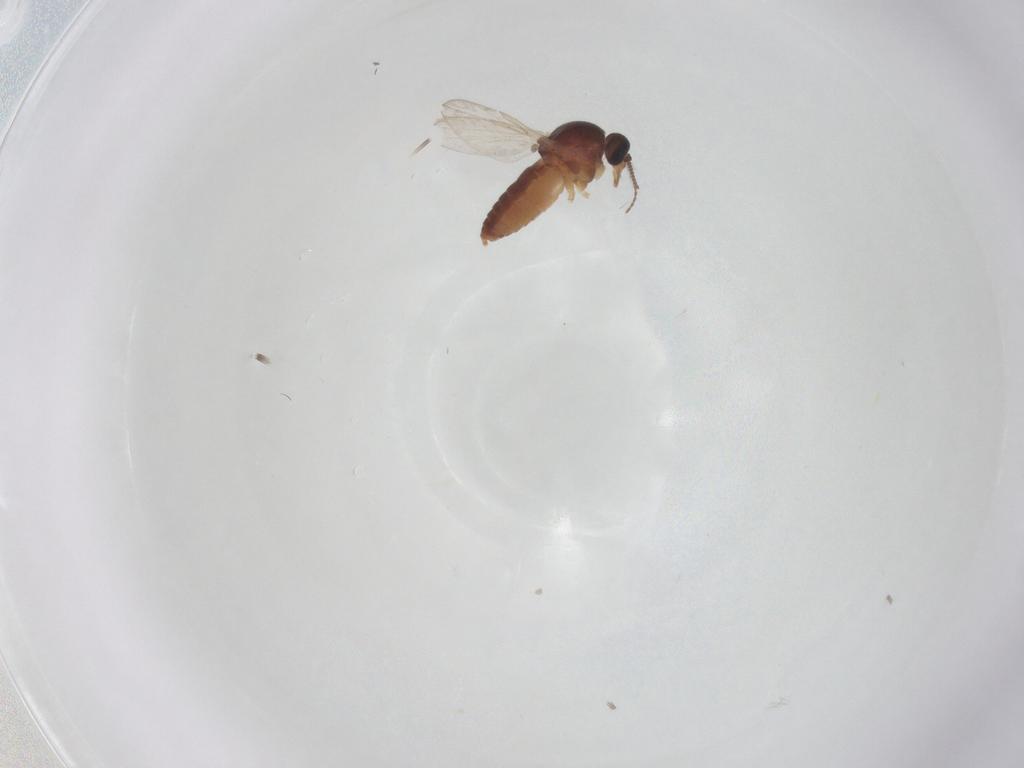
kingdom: Animalia
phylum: Arthropoda
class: Insecta
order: Diptera
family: Ceratopogonidae
